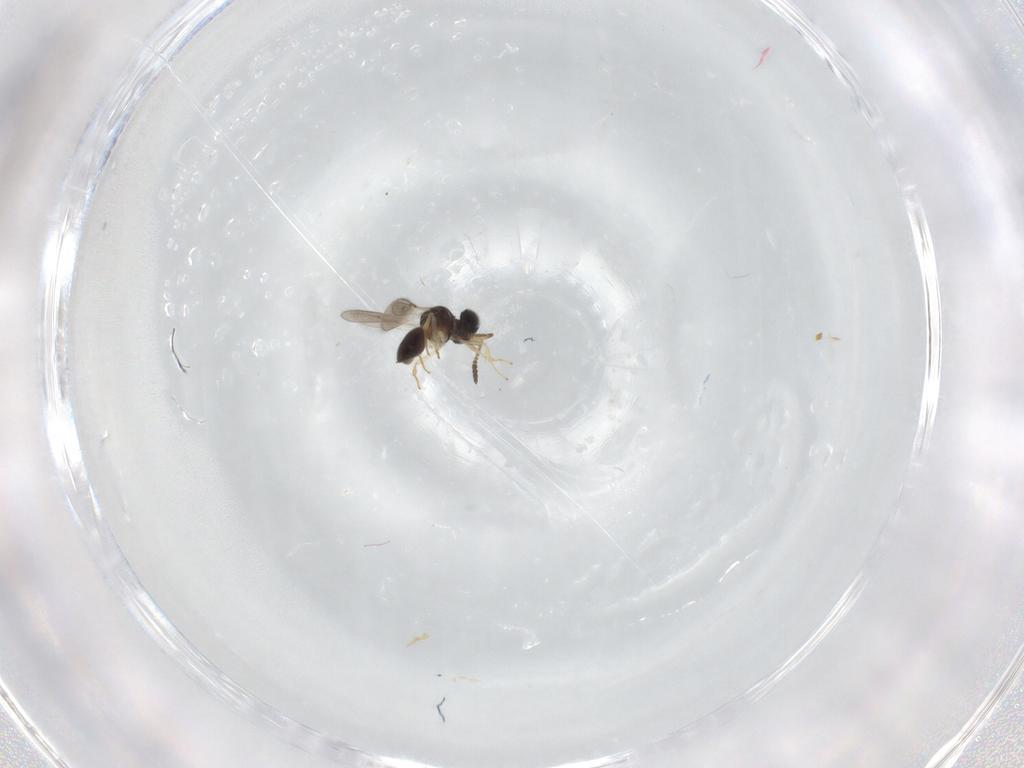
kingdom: Animalia
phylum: Arthropoda
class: Insecta
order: Hymenoptera
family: Scelionidae
